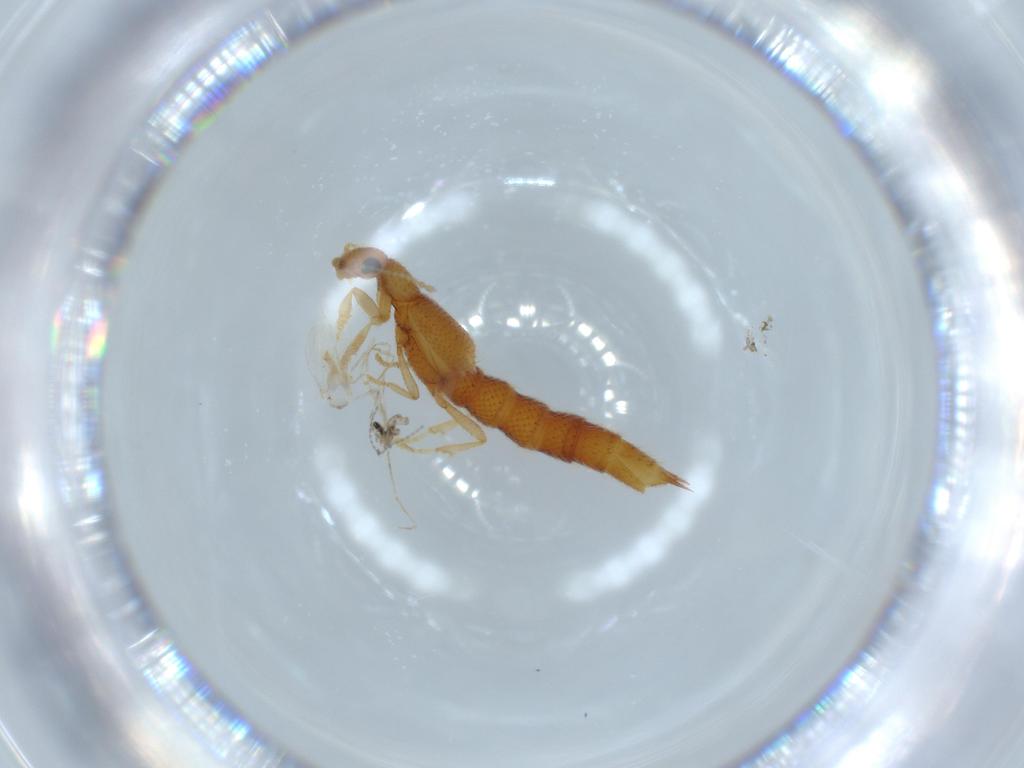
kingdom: Animalia
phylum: Arthropoda
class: Insecta
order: Coleoptera
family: Staphylinidae
